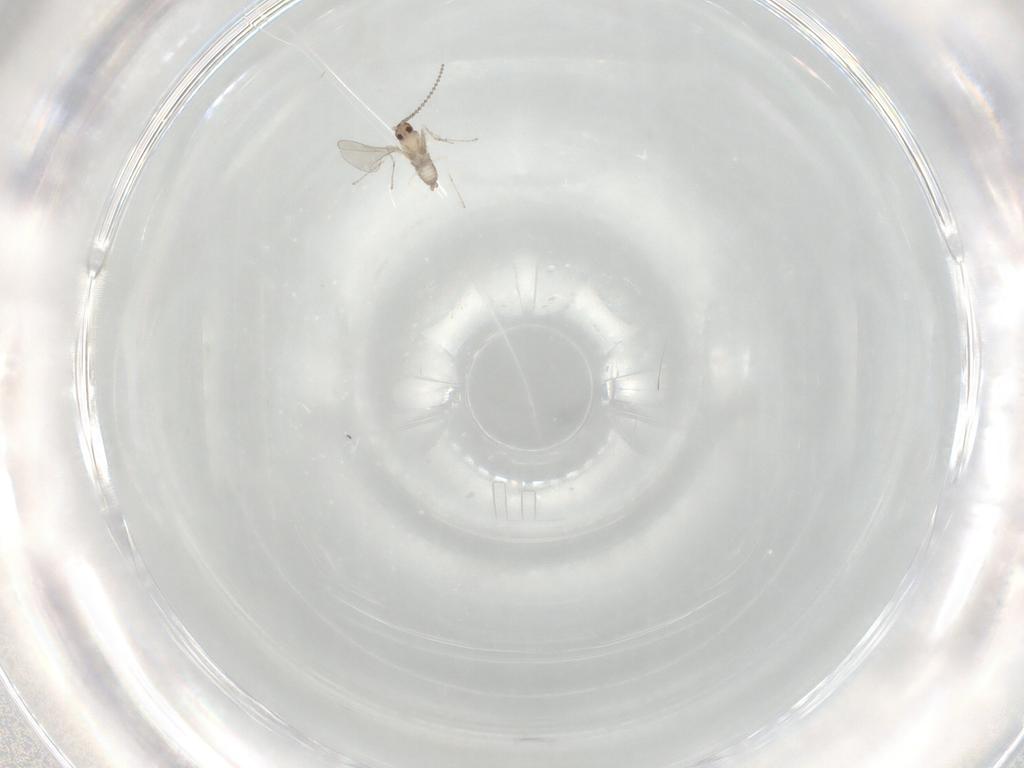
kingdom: Animalia
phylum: Arthropoda
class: Insecta
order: Diptera
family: Cecidomyiidae
